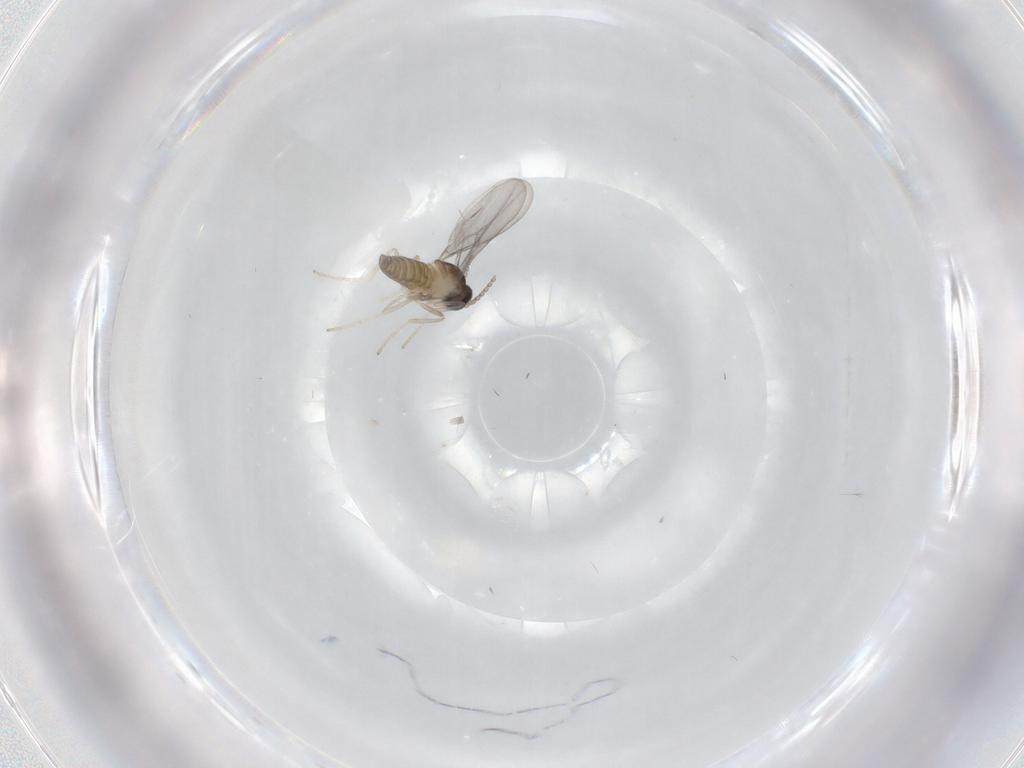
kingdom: Animalia
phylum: Arthropoda
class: Insecta
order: Diptera
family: Cecidomyiidae
